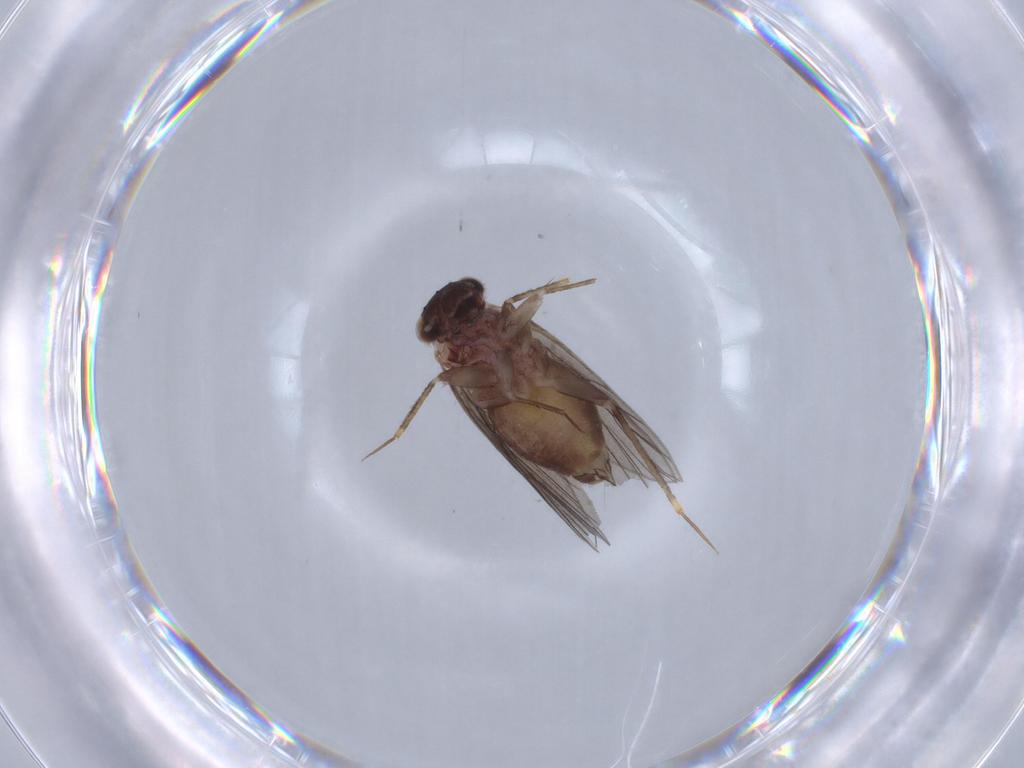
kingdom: Animalia
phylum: Arthropoda
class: Insecta
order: Psocodea
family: Lepidopsocidae
